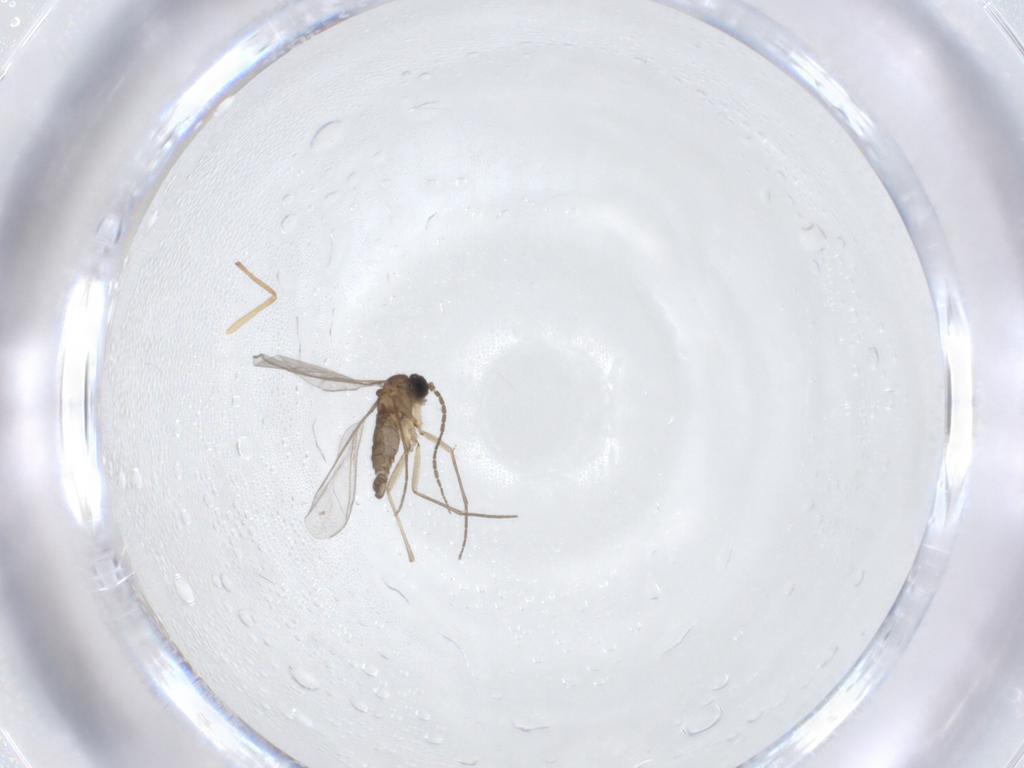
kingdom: Animalia
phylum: Arthropoda
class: Insecta
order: Diptera
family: Sciaridae
